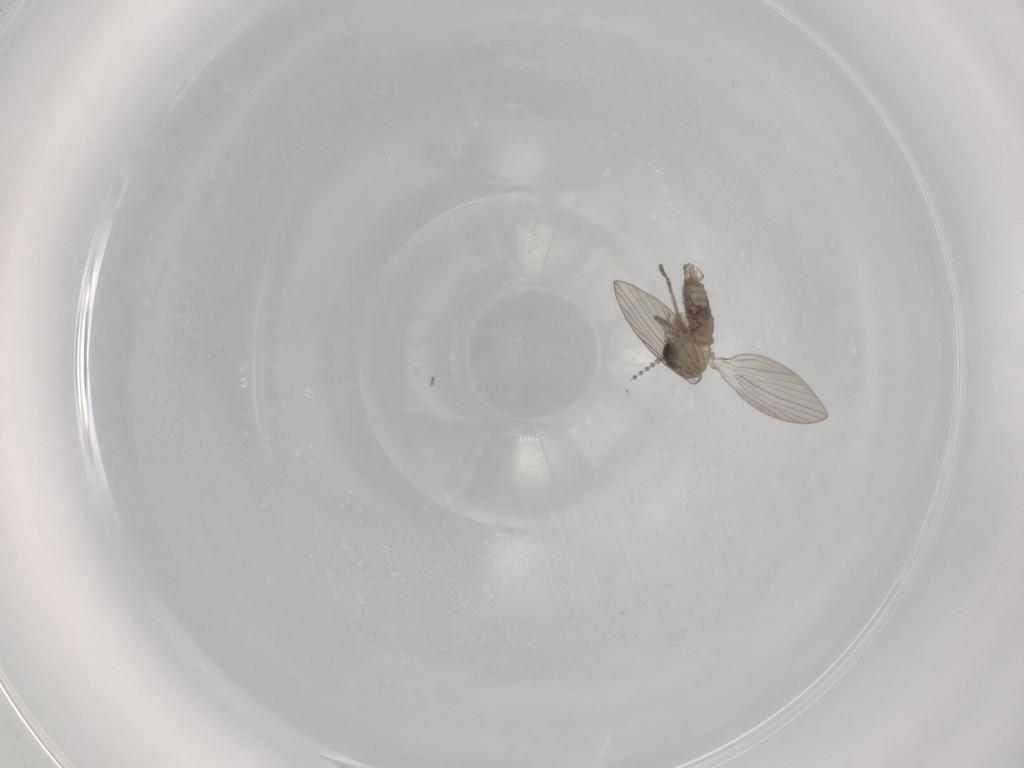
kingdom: Animalia
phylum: Arthropoda
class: Insecta
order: Diptera
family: Psychodidae
